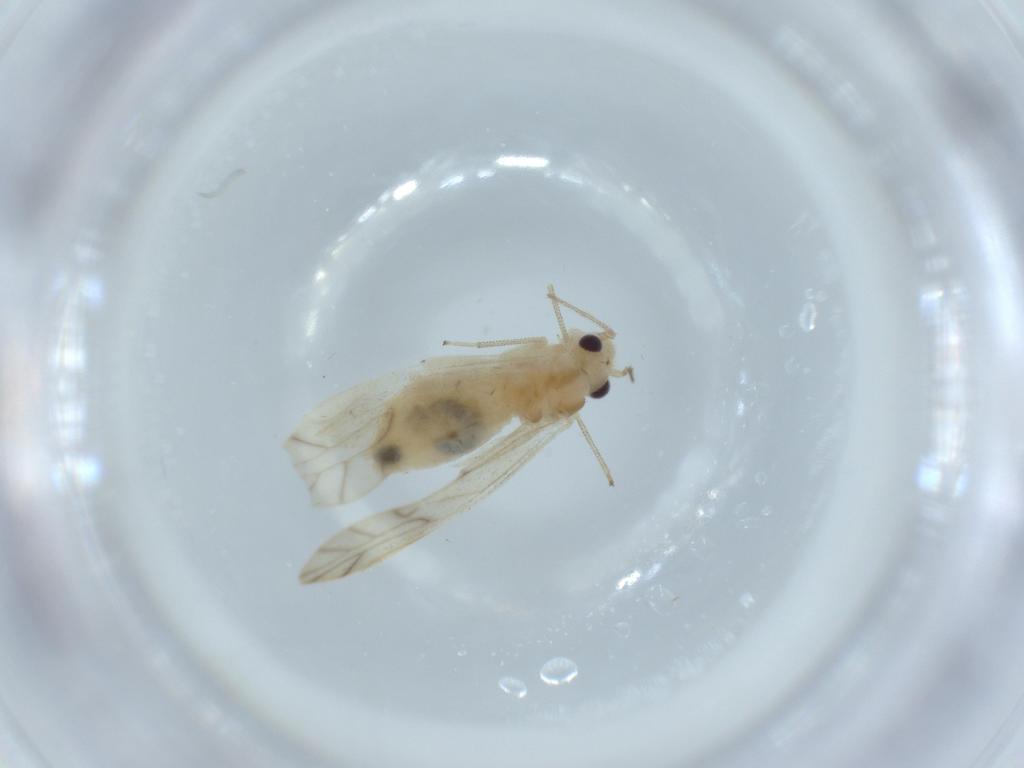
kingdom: Animalia
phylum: Arthropoda
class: Insecta
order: Psocodea
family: Caeciliusidae
